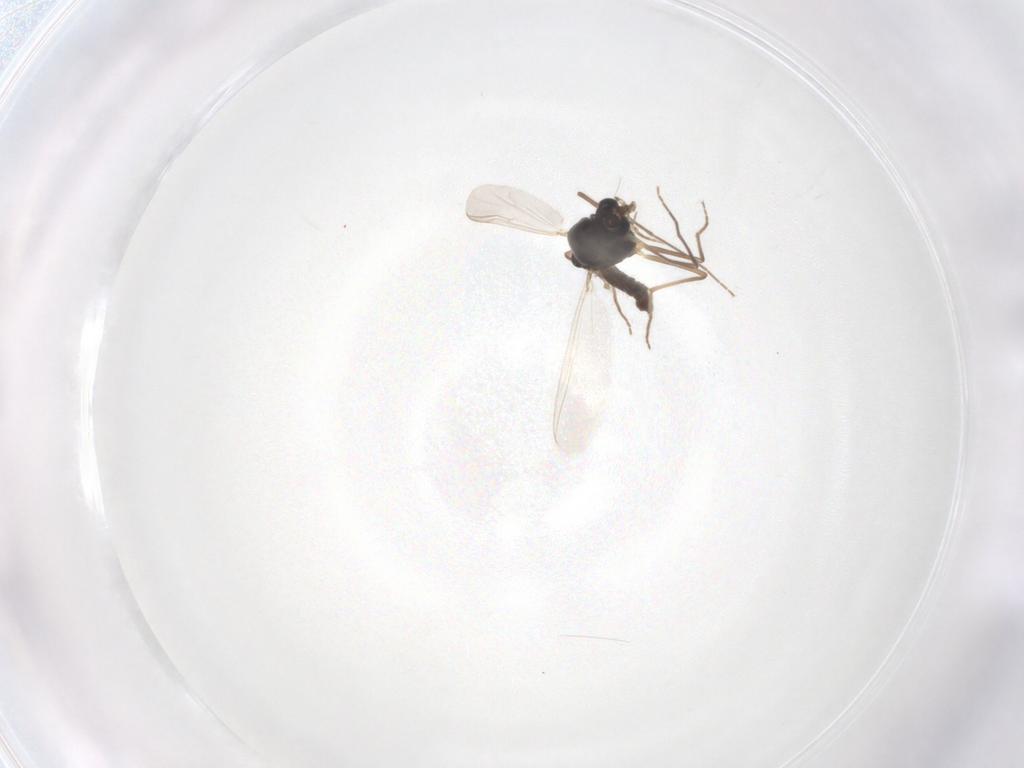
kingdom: Animalia
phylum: Arthropoda
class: Insecta
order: Diptera
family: Chironomidae
